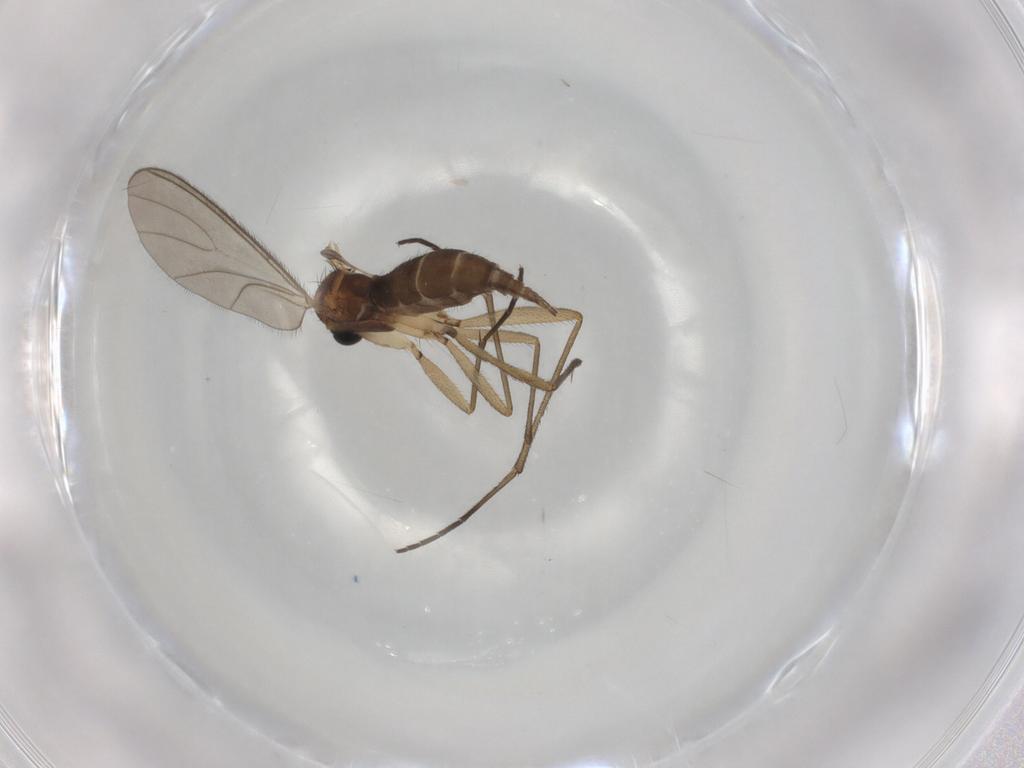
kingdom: Animalia
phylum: Arthropoda
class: Insecta
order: Diptera
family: Sciaridae
